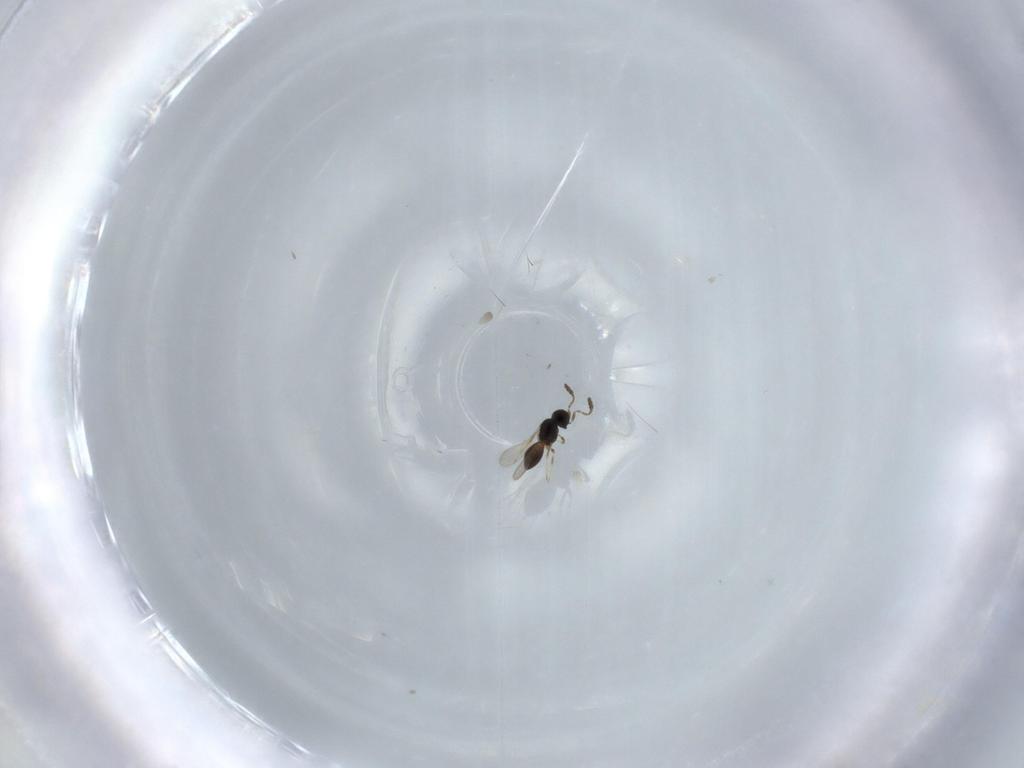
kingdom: Animalia
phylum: Arthropoda
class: Insecta
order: Hymenoptera
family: Scelionidae
